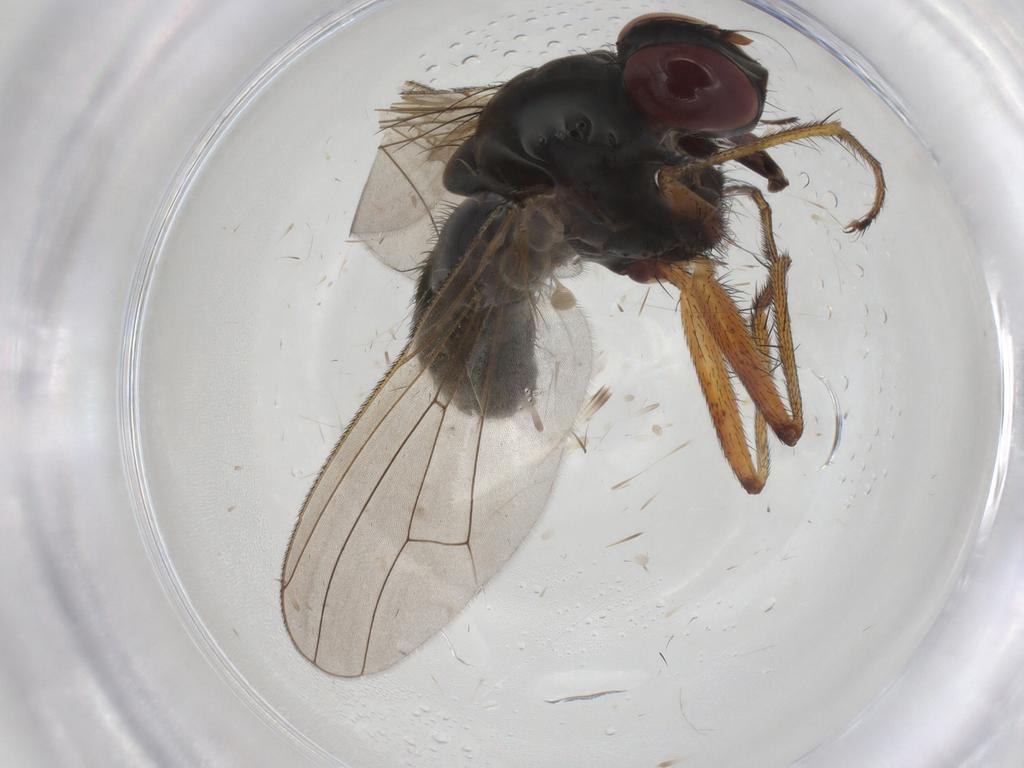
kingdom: Animalia
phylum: Arthropoda
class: Insecta
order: Diptera
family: Muscidae
